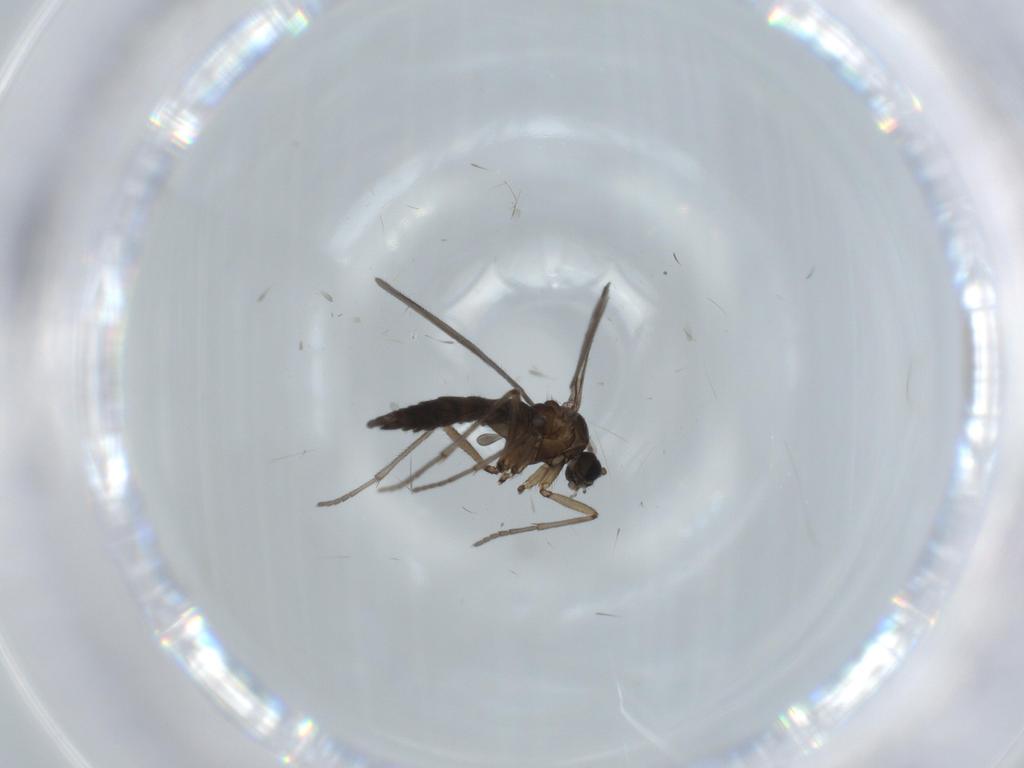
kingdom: Animalia
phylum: Arthropoda
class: Insecta
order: Diptera
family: Sciaridae
